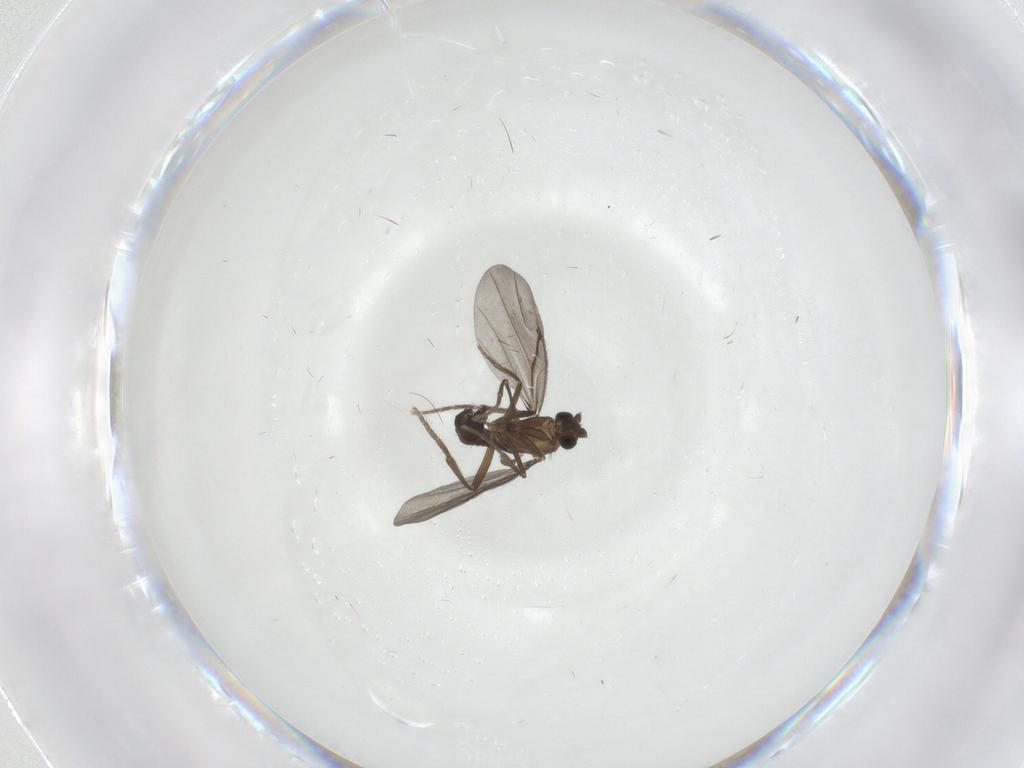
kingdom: Animalia
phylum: Arthropoda
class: Insecta
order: Diptera
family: Phoridae
